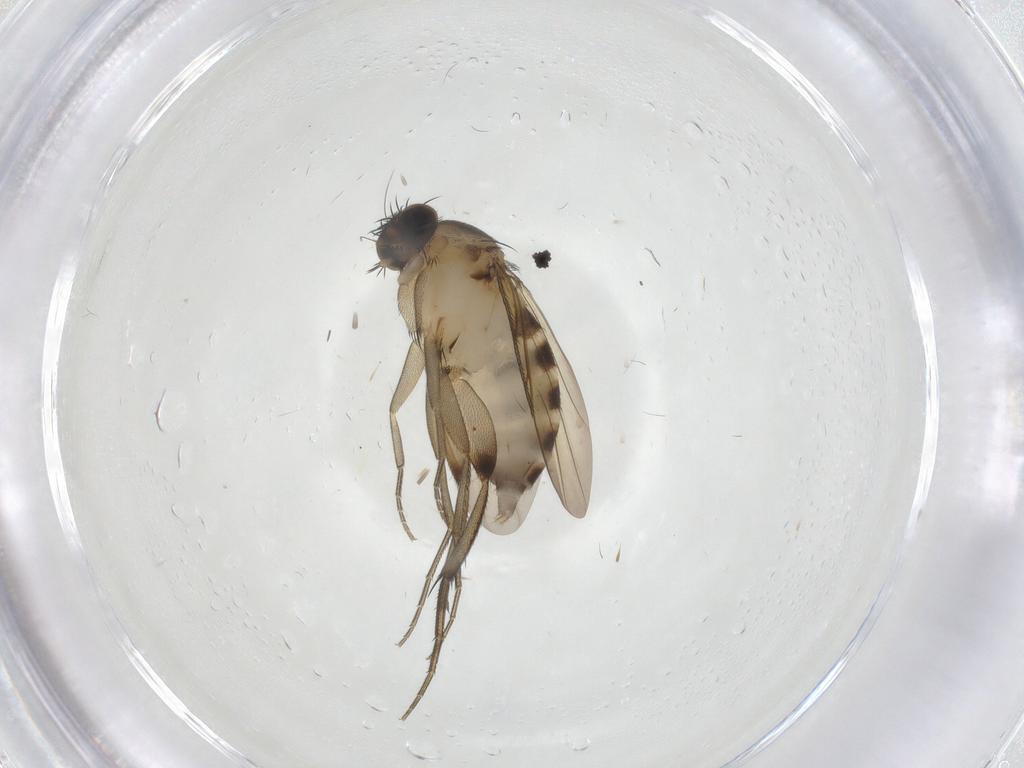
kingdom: Animalia
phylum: Arthropoda
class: Insecta
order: Diptera
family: Phoridae
